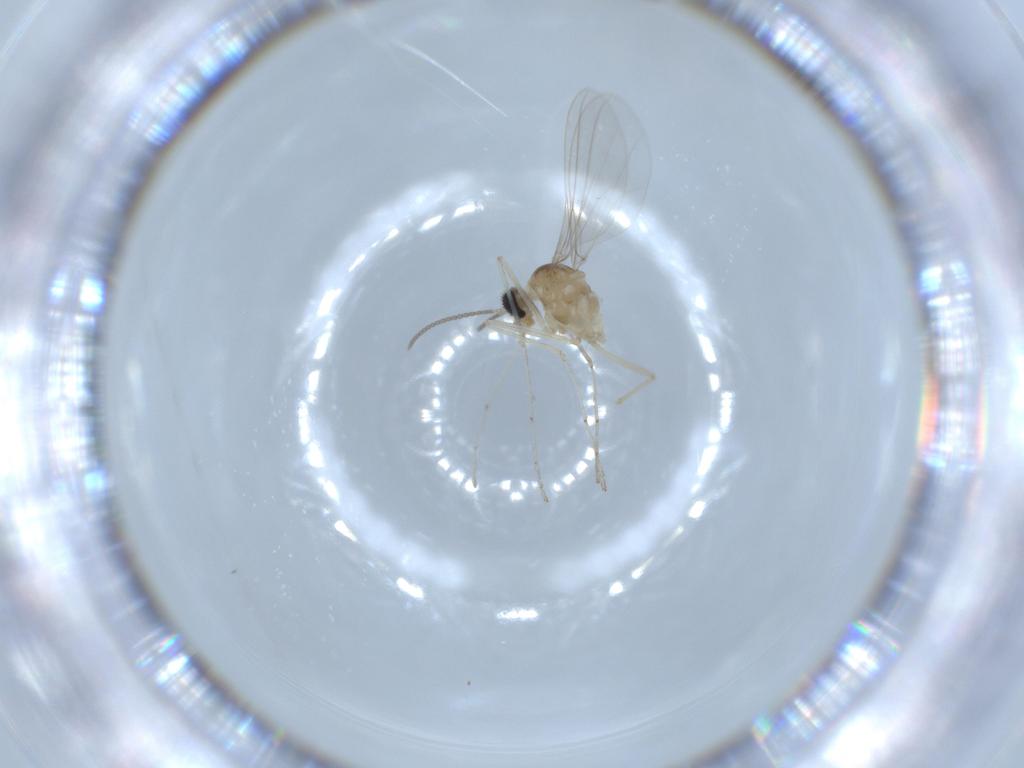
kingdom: Animalia
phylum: Arthropoda
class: Insecta
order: Diptera
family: Cecidomyiidae
